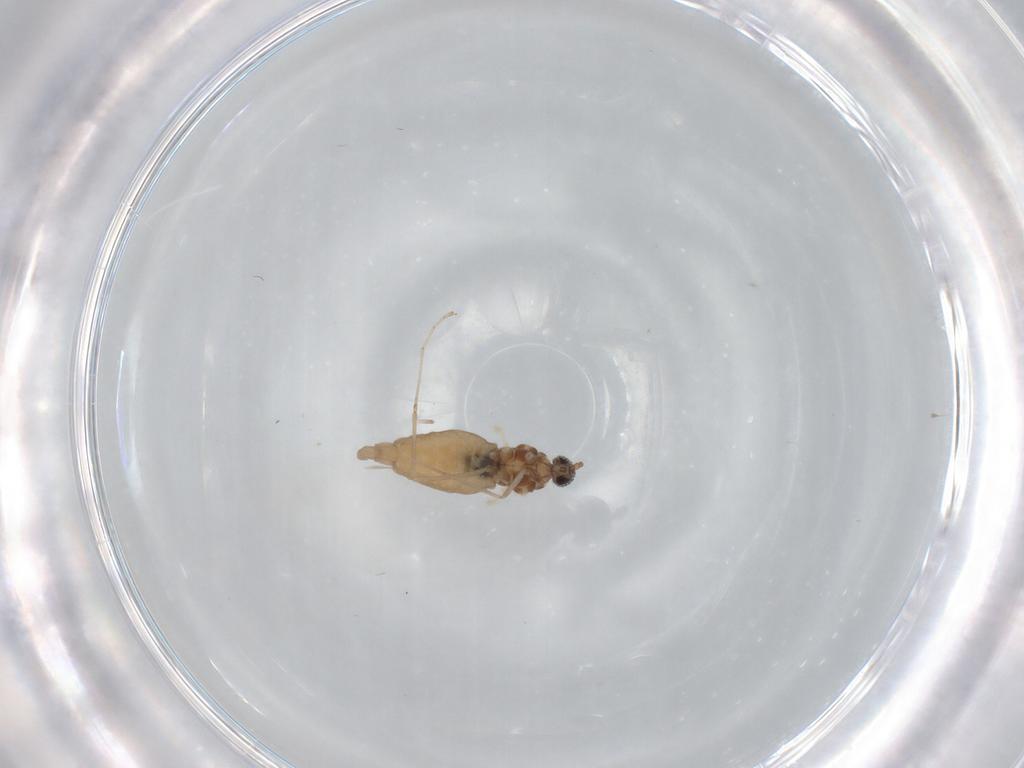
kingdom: Animalia
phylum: Arthropoda
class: Insecta
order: Diptera
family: Cecidomyiidae
